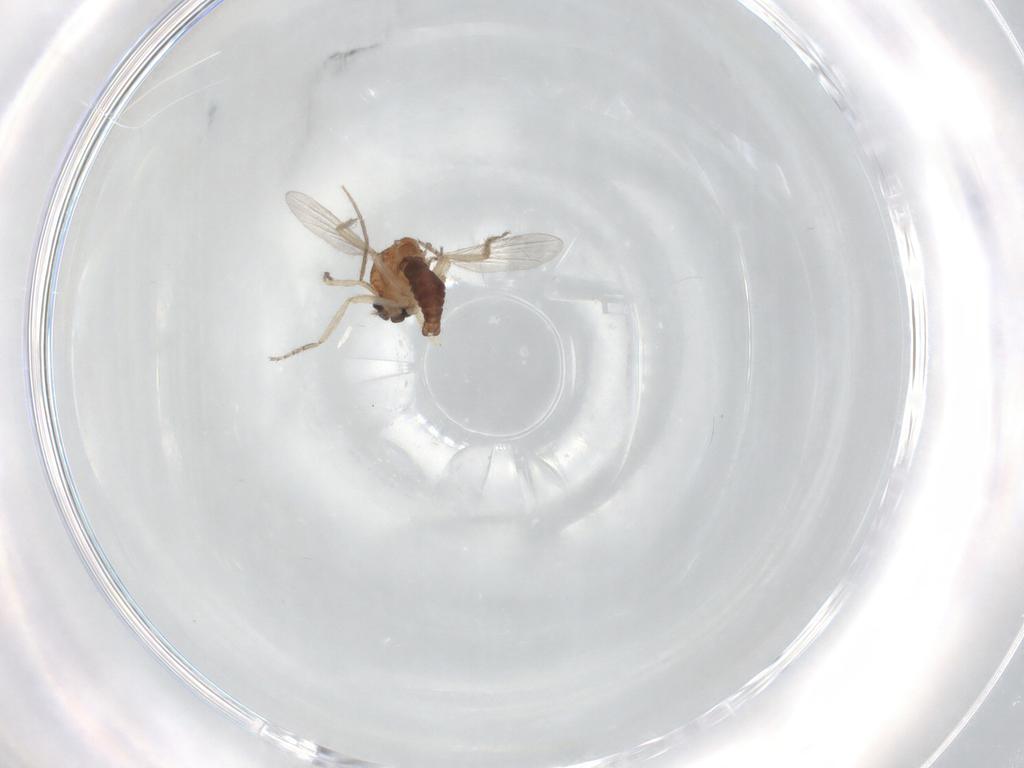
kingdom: Animalia
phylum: Arthropoda
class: Insecta
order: Diptera
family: Ceratopogonidae
